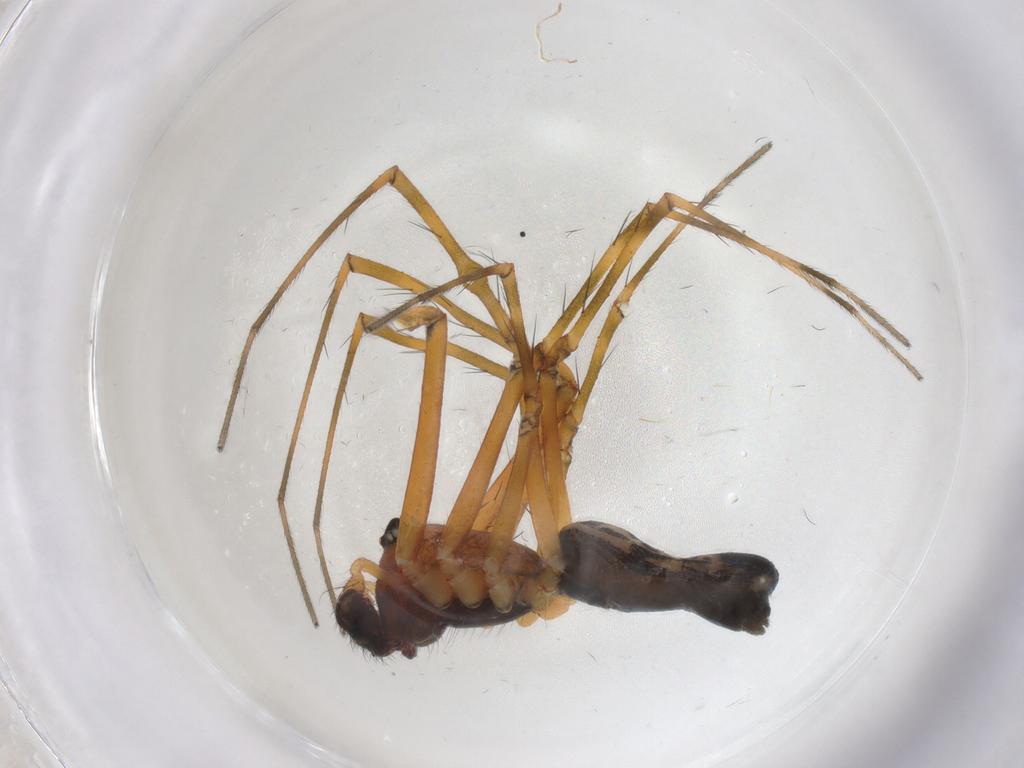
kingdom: Animalia
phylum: Arthropoda
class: Arachnida
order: Araneae
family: Linyphiidae
